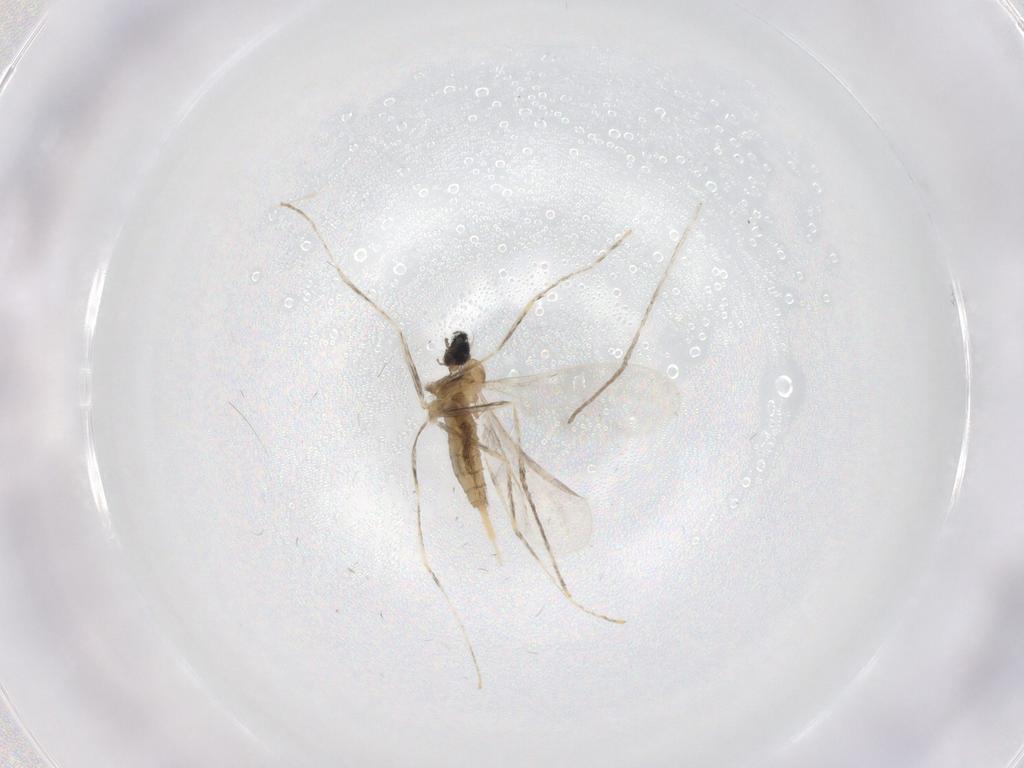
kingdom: Animalia
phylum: Arthropoda
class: Insecta
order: Diptera
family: Cecidomyiidae
